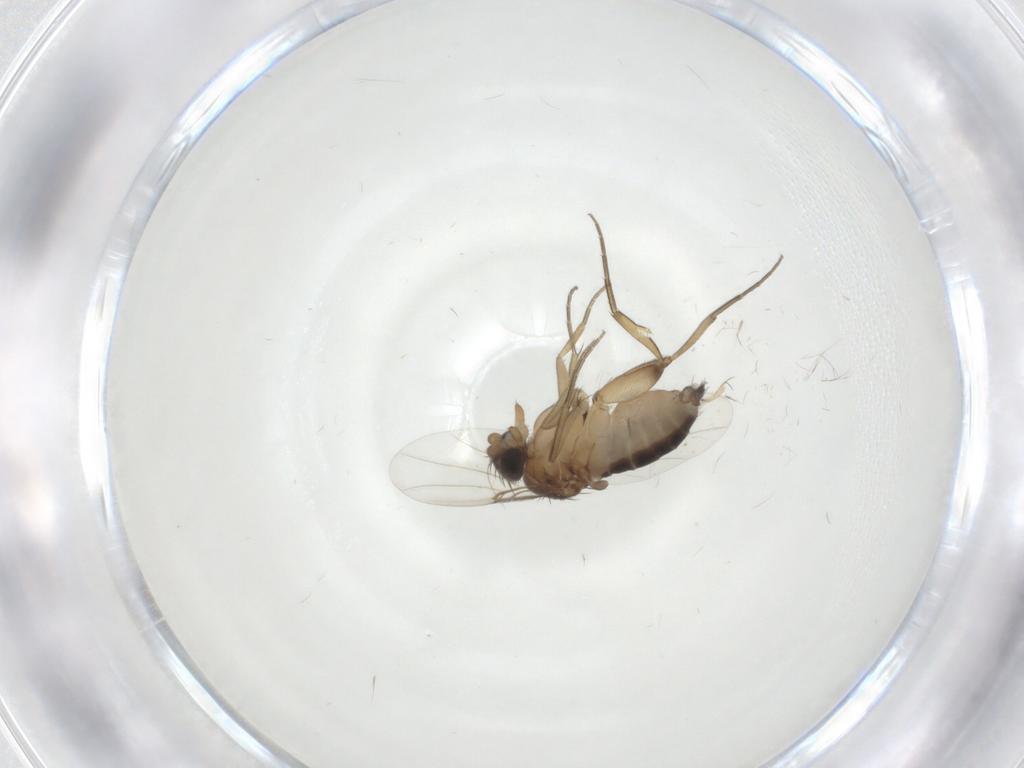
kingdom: Animalia
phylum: Arthropoda
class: Insecta
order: Diptera
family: Phoridae
